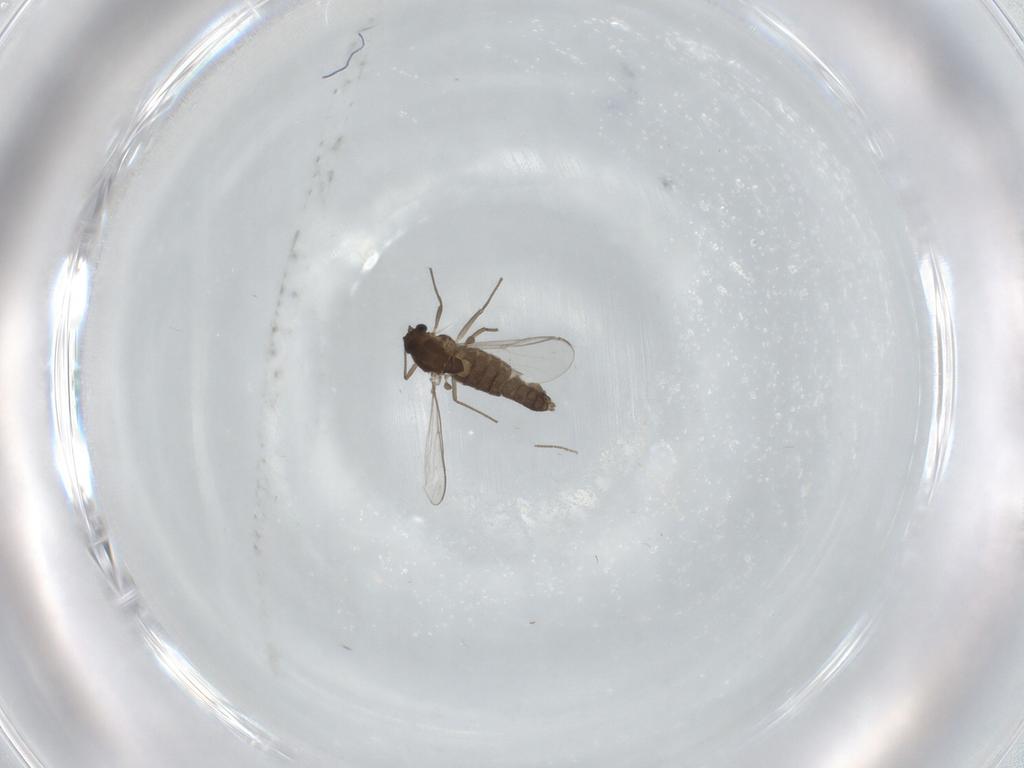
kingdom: Animalia
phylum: Arthropoda
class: Insecta
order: Diptera
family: Chironomidae
